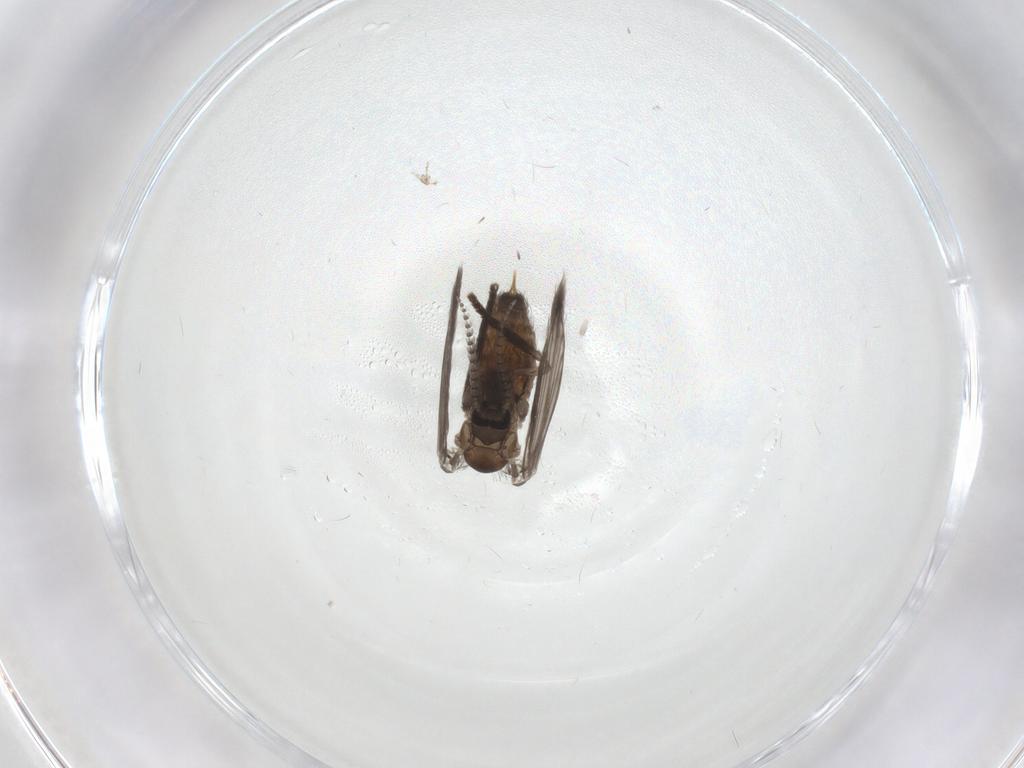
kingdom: Animalia
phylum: Arthropoda
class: Insecta
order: Diptera
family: Psychodidae
